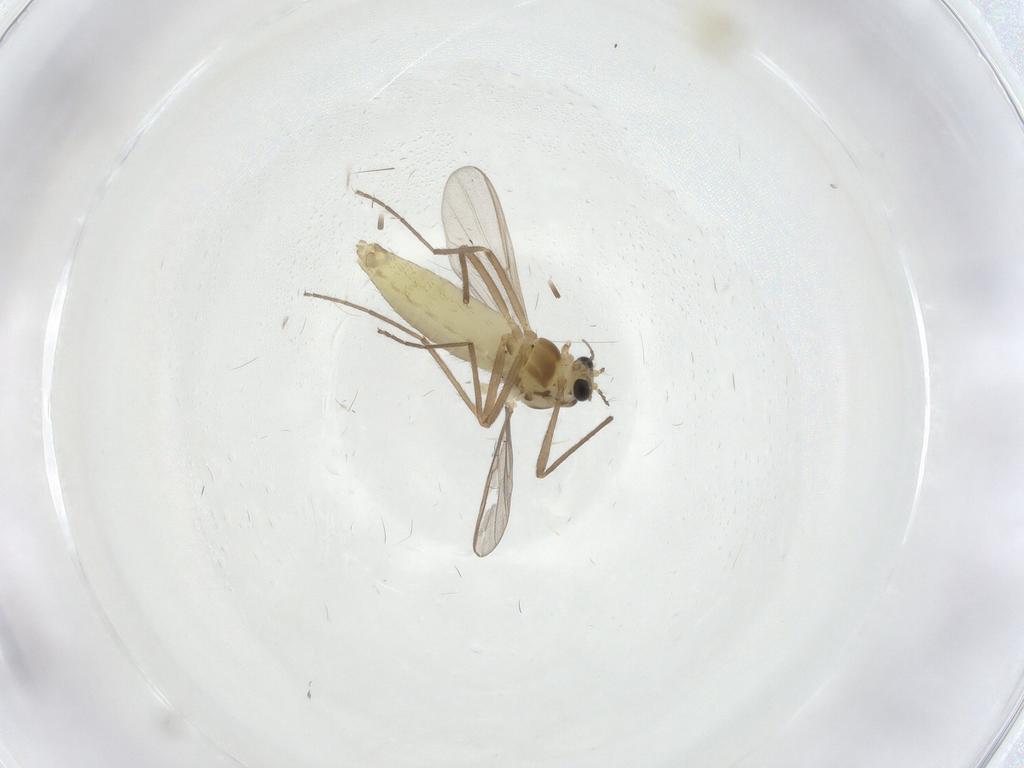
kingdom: Animalia
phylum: Arthropoda
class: Insecta
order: Diptera
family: Chironomidae
